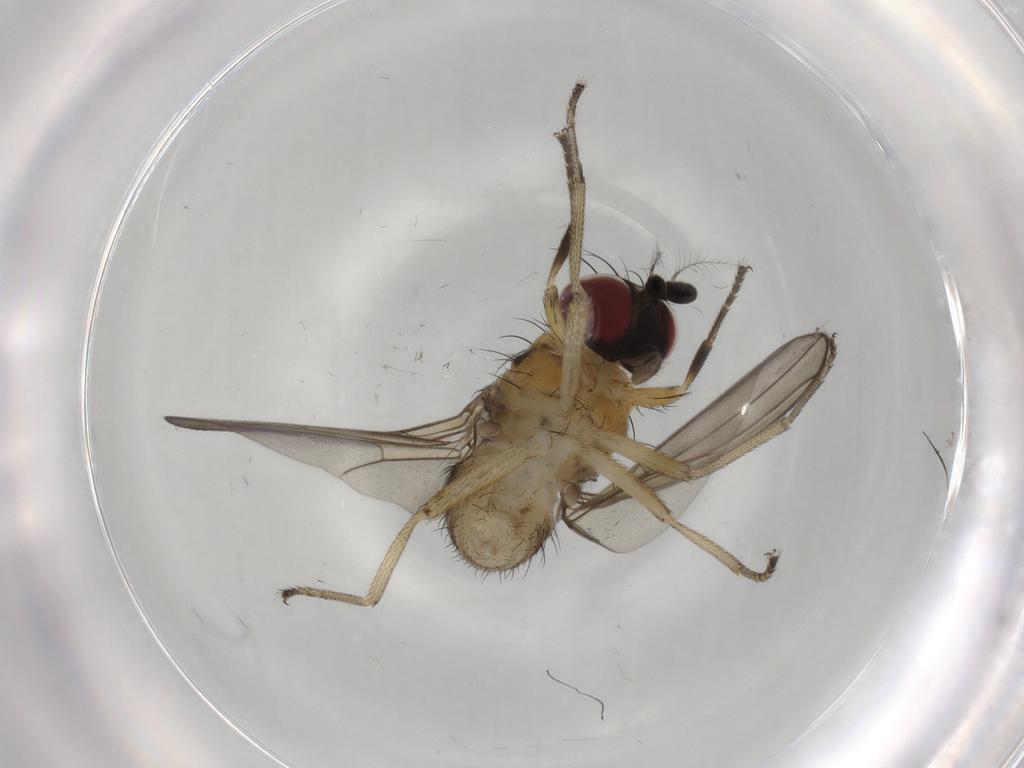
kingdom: Animalia
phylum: Arthropoda
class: Insecta
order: Diptera
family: Lauxaniidae
